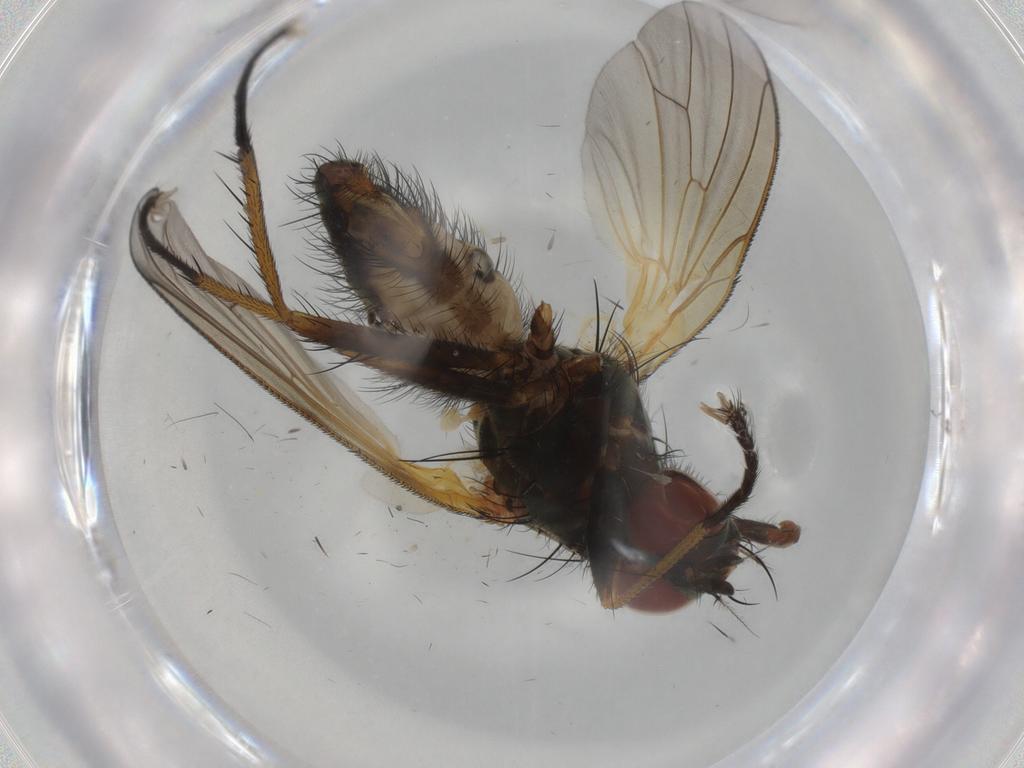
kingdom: Animalia
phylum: Arthropoda
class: Insecta
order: Diptera
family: Anthomyiidae
